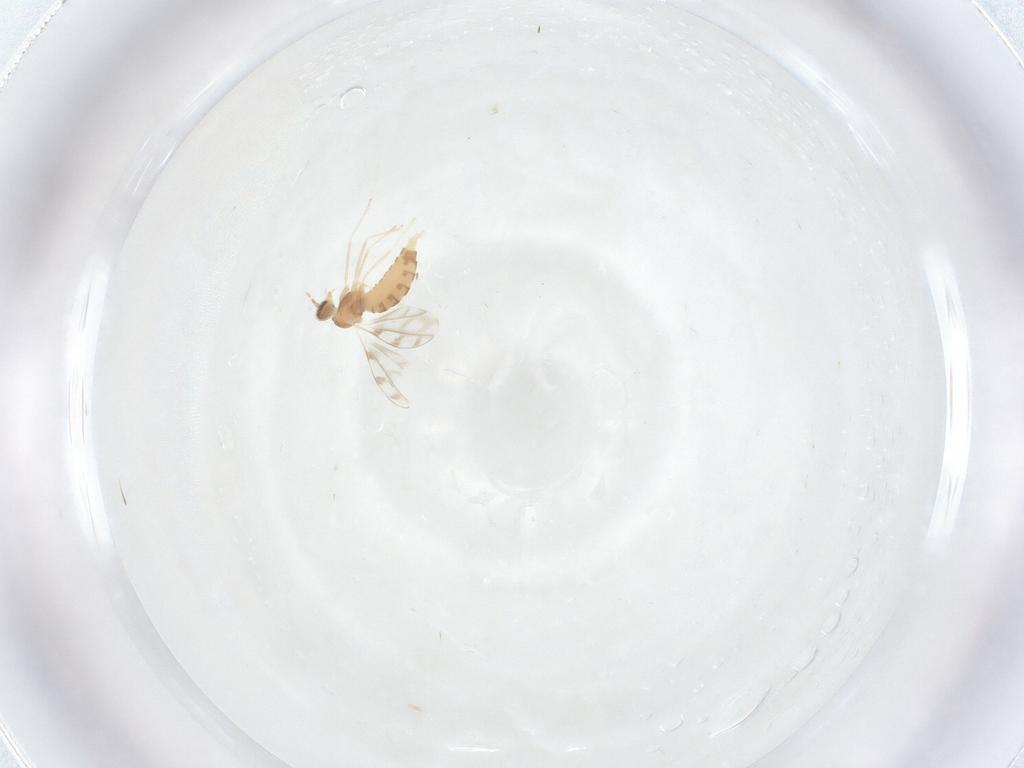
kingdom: Animalia
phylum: Arthropoda
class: Insecta
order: Diptera
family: Cecidomyiidae
